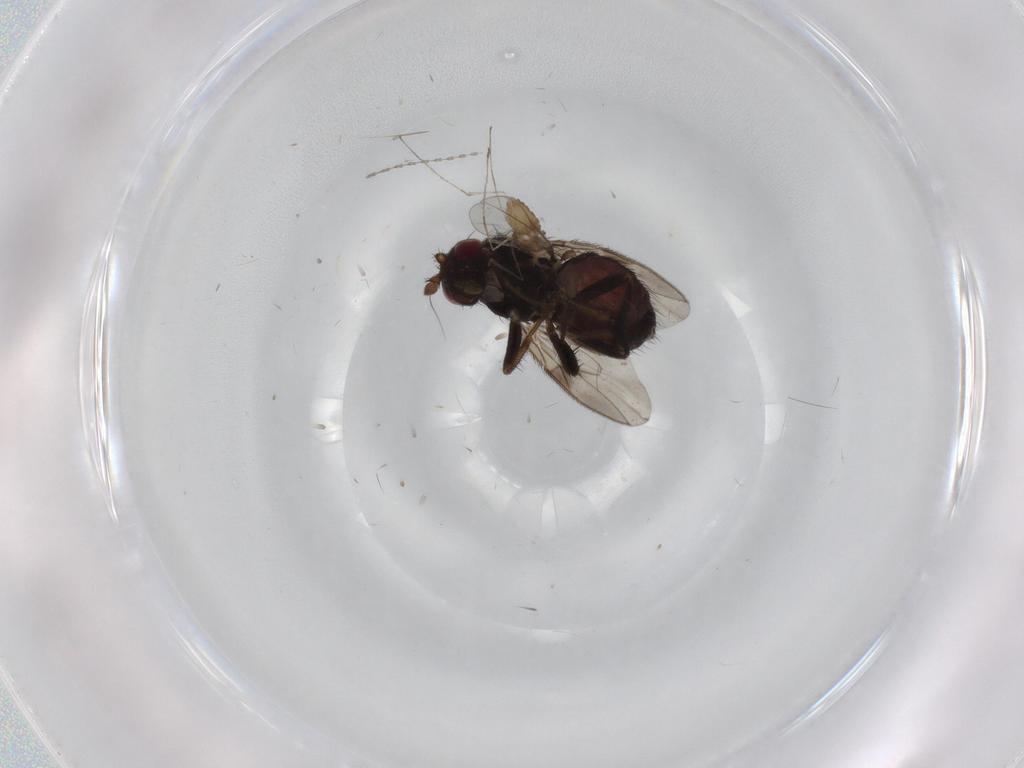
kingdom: Animalia
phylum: Arthropoda
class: Insecta
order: Diptera
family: Sphaeroceridae
